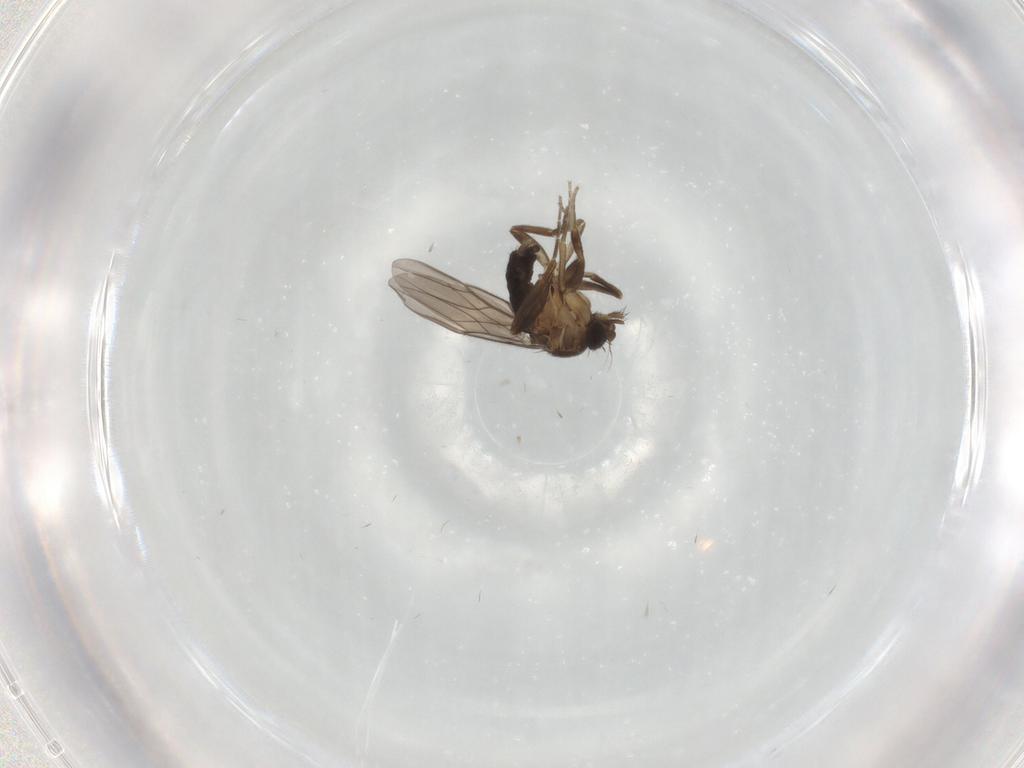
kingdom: Animalia
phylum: Arthropoda
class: Insecta
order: Diptera
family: Chironomidae
